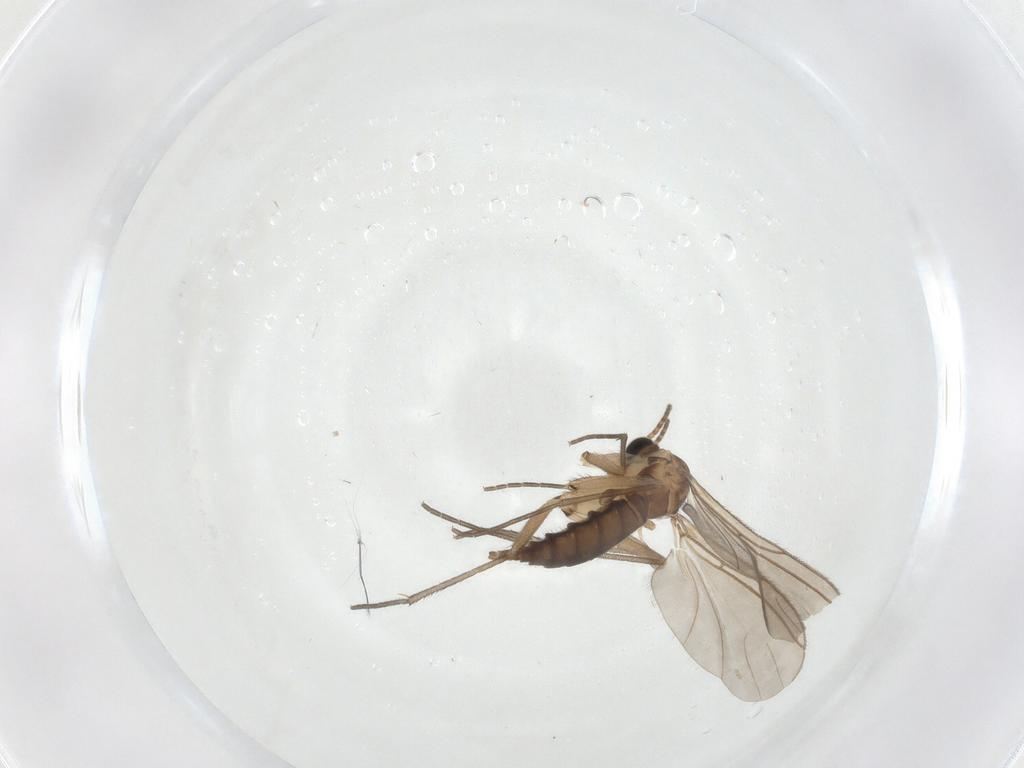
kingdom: Animalia
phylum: Arthropoda
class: Insecta
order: Diptera
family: Sciaridae
